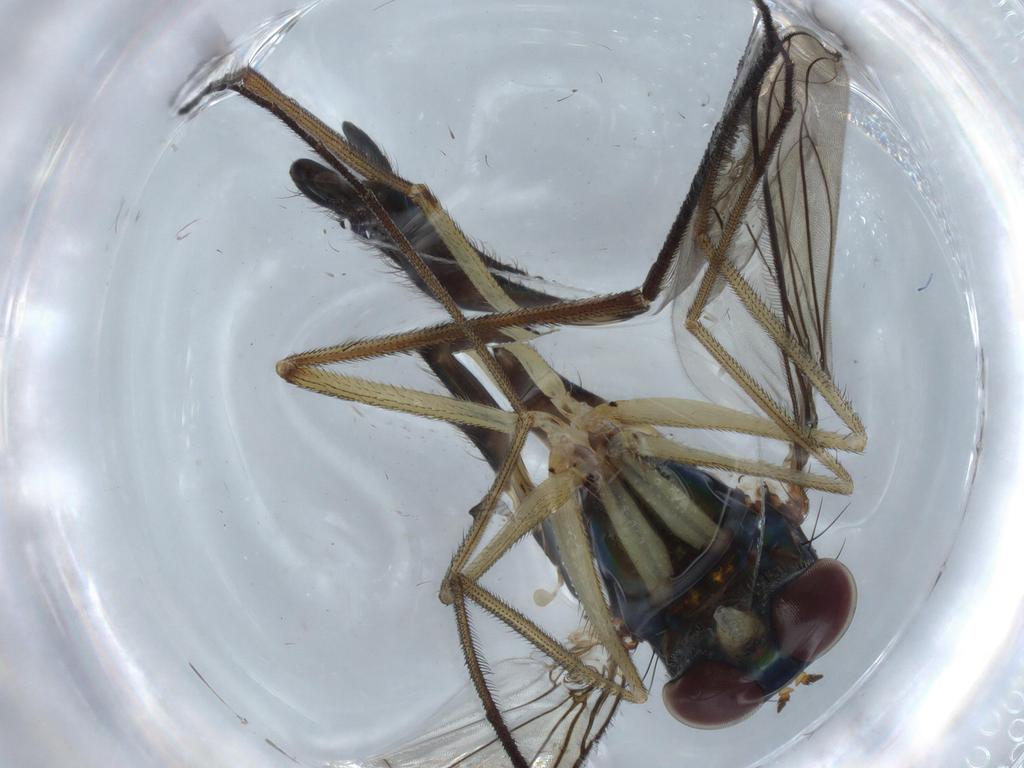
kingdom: Animalia
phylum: Arthropoda
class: Insecta
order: Diptera
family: Dolichopodidae
